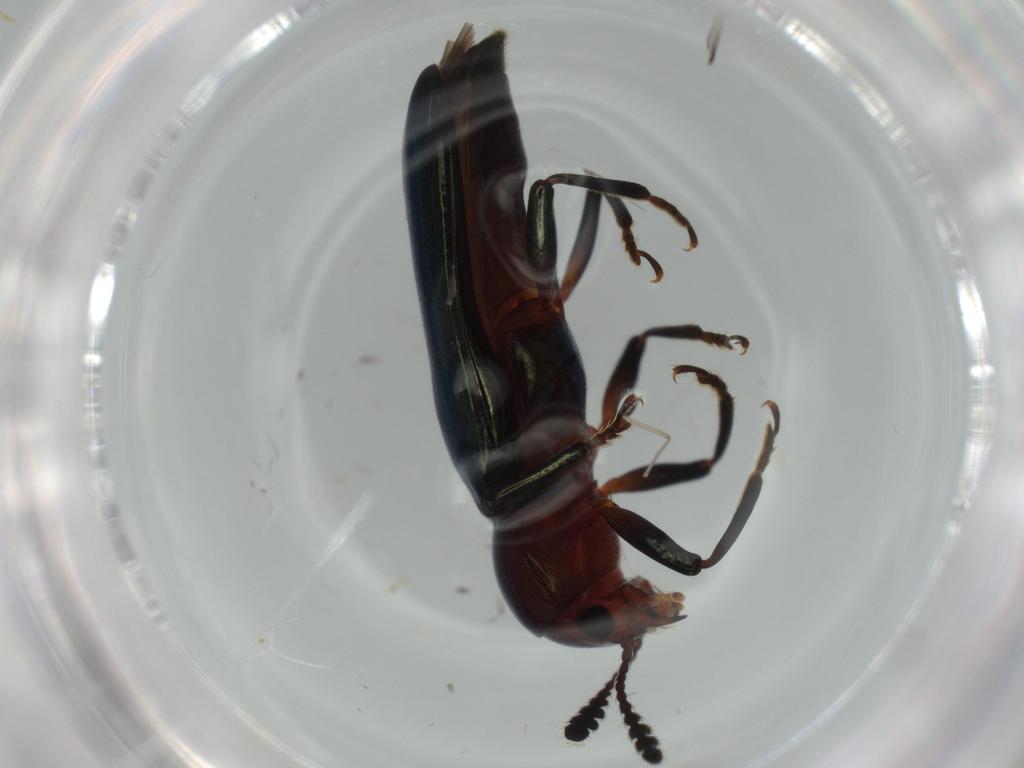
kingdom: Animalia
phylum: Arthropoda
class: Insecta
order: Coleoptera
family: Erotylidae
